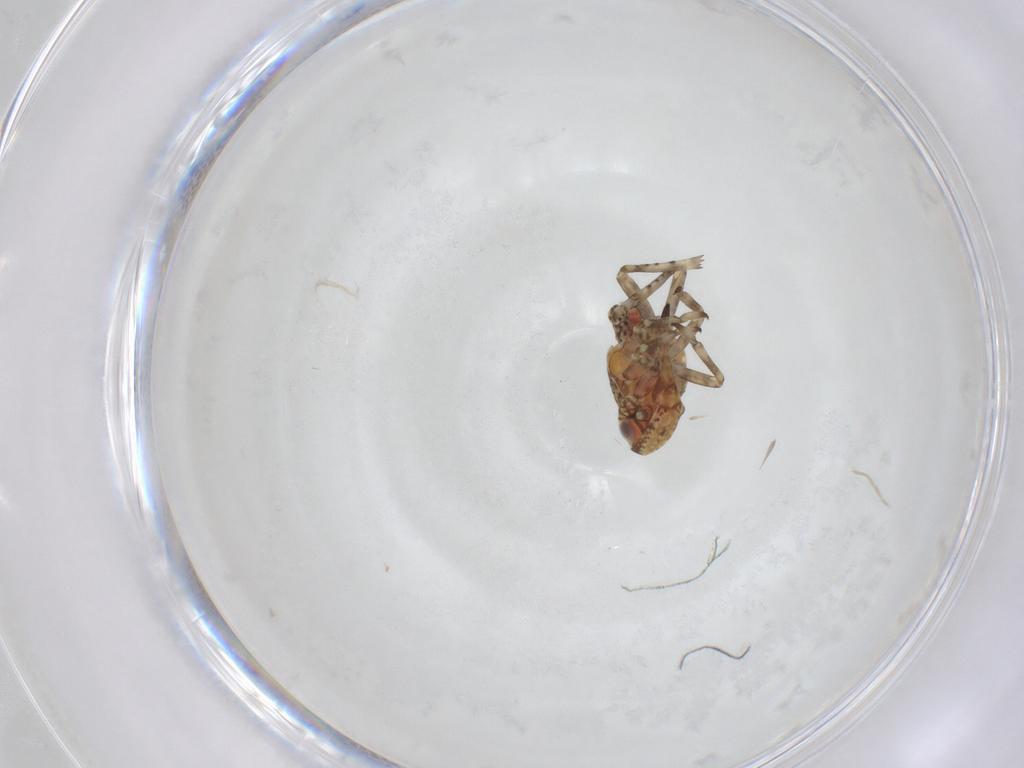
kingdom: Animalia
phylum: Arthropoda
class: Insecta
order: Hemiptera
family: Tropiduchidae
